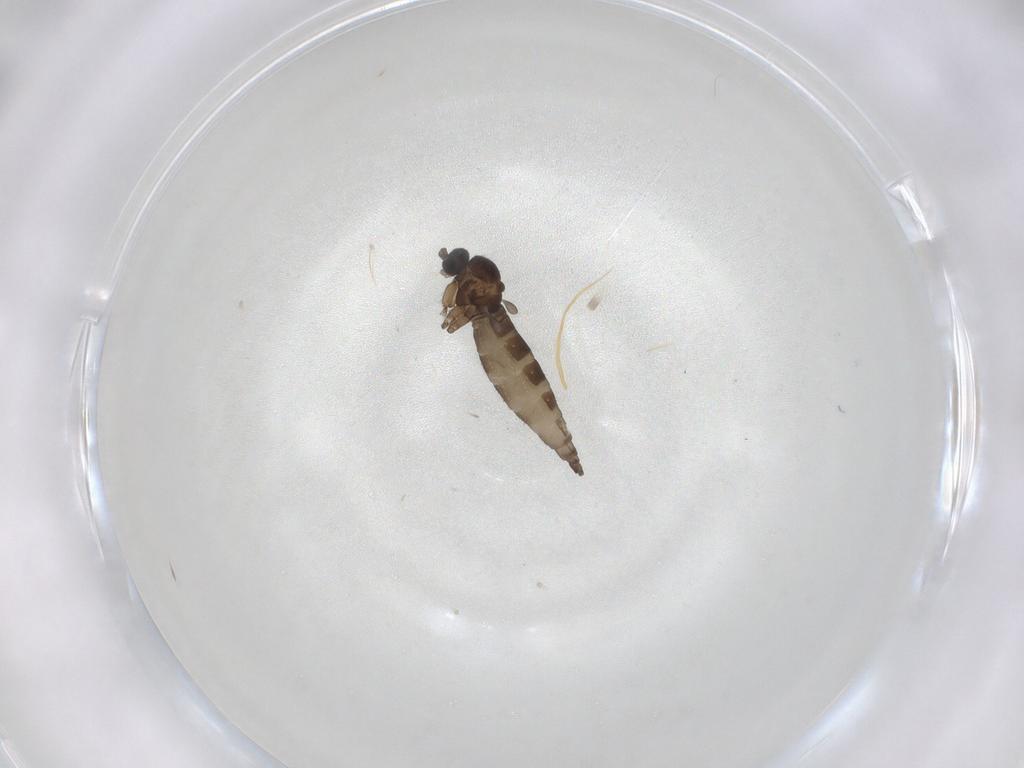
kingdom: Animalia
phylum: Arthropoda
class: Insecta
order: Diptera
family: Sciaridae
